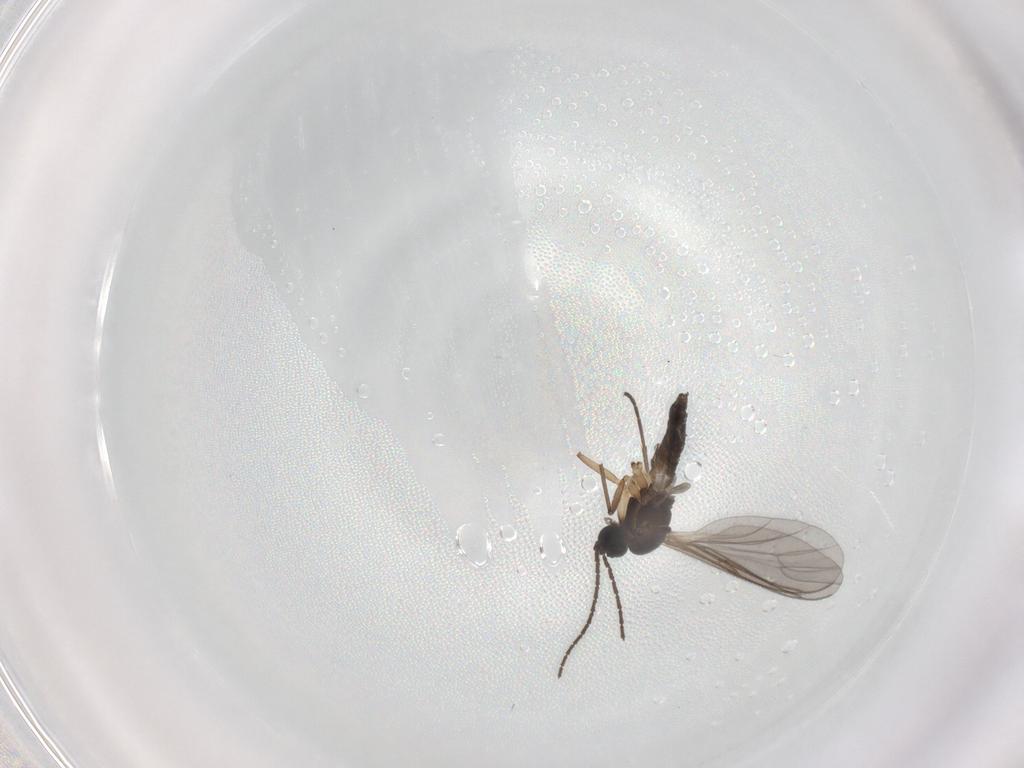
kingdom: Animalia
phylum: Arthropoda
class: Insecta
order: Diptera
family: Sciaridae
